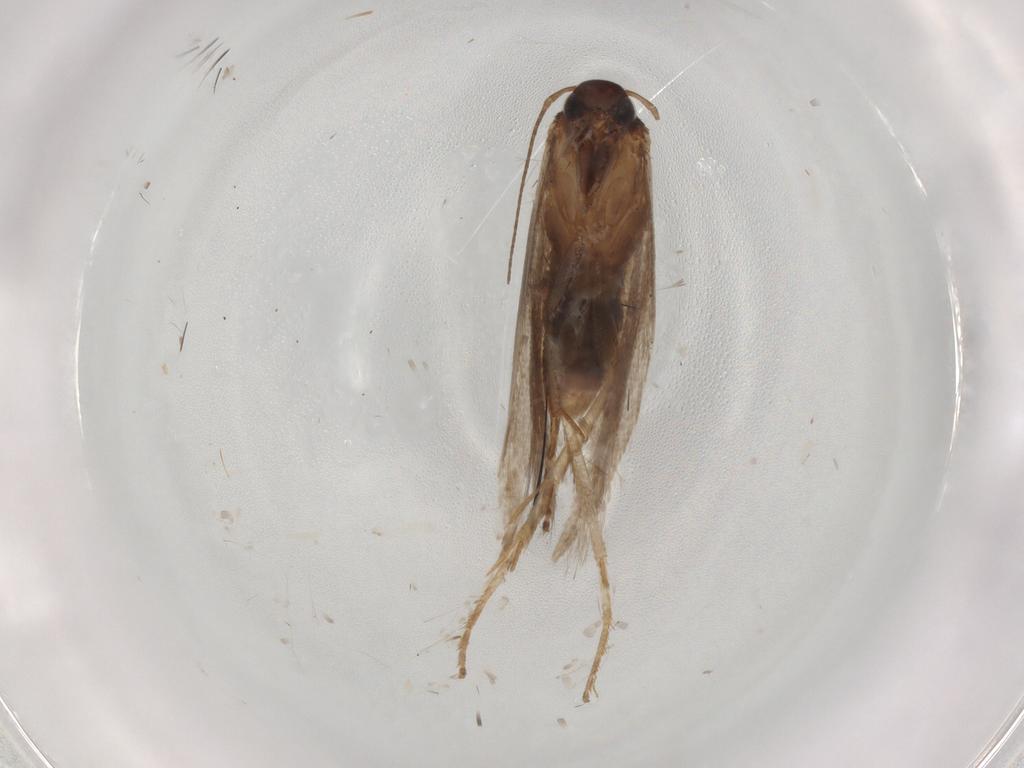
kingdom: Animalia
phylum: Arthropoda
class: Insecta
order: Lepidoptera
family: Gelechiidae
